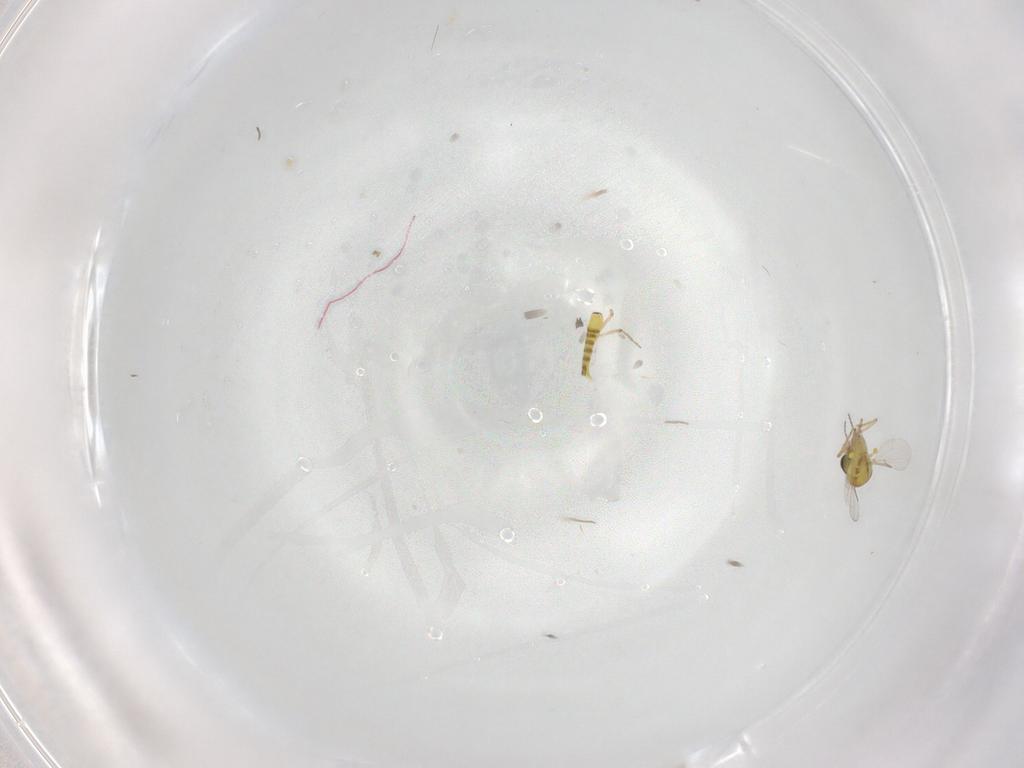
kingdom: Animalia
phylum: Arthropoda
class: Insecta
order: Diptera
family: Ceratopogonidae
